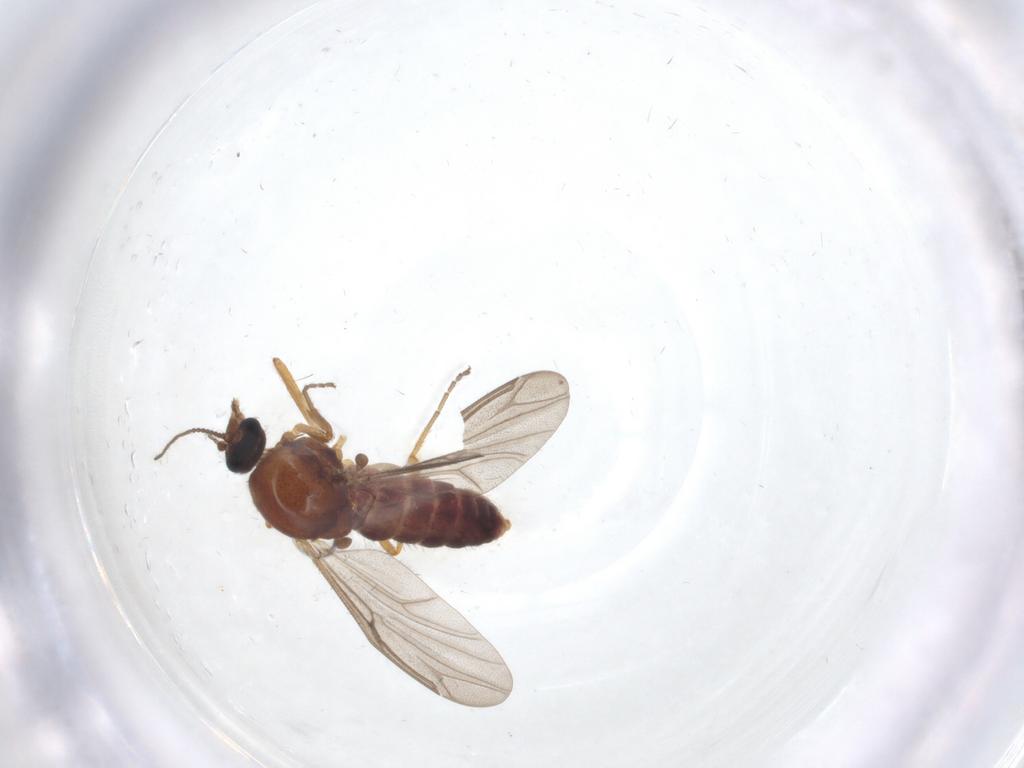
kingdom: Animalia
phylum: Arthropoda
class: Insecta
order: Diptera
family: Ceratopogonidae
